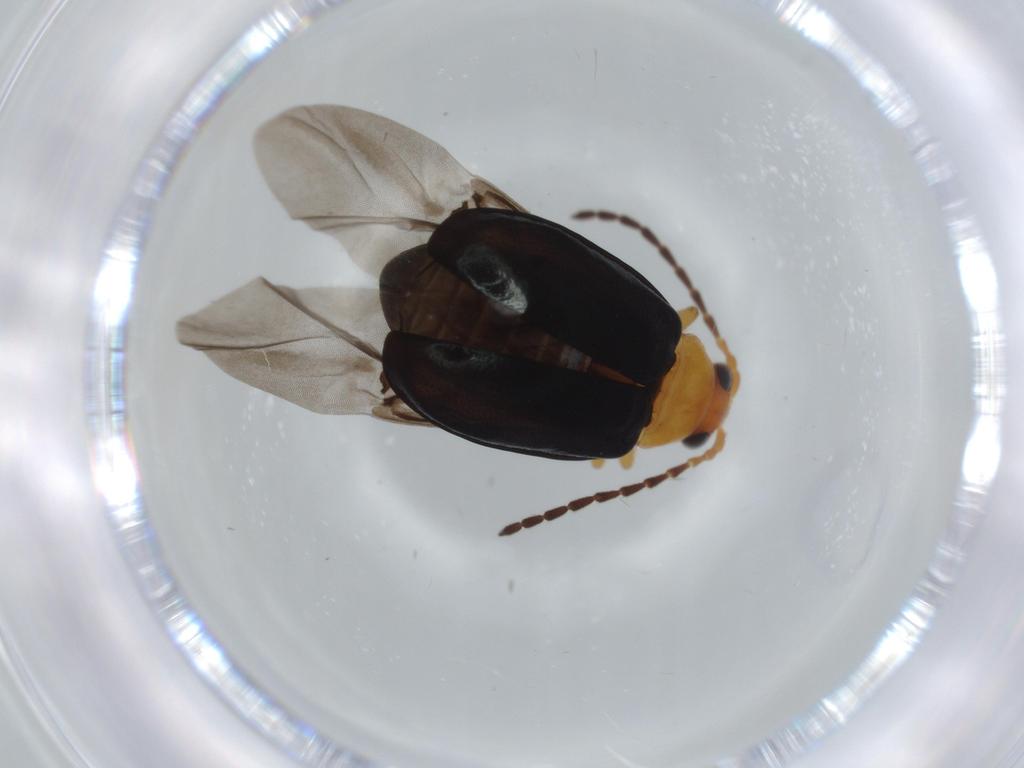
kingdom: Animalia
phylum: Arthropoda
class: Insecta
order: Coleoptera
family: Chrysomelidae
